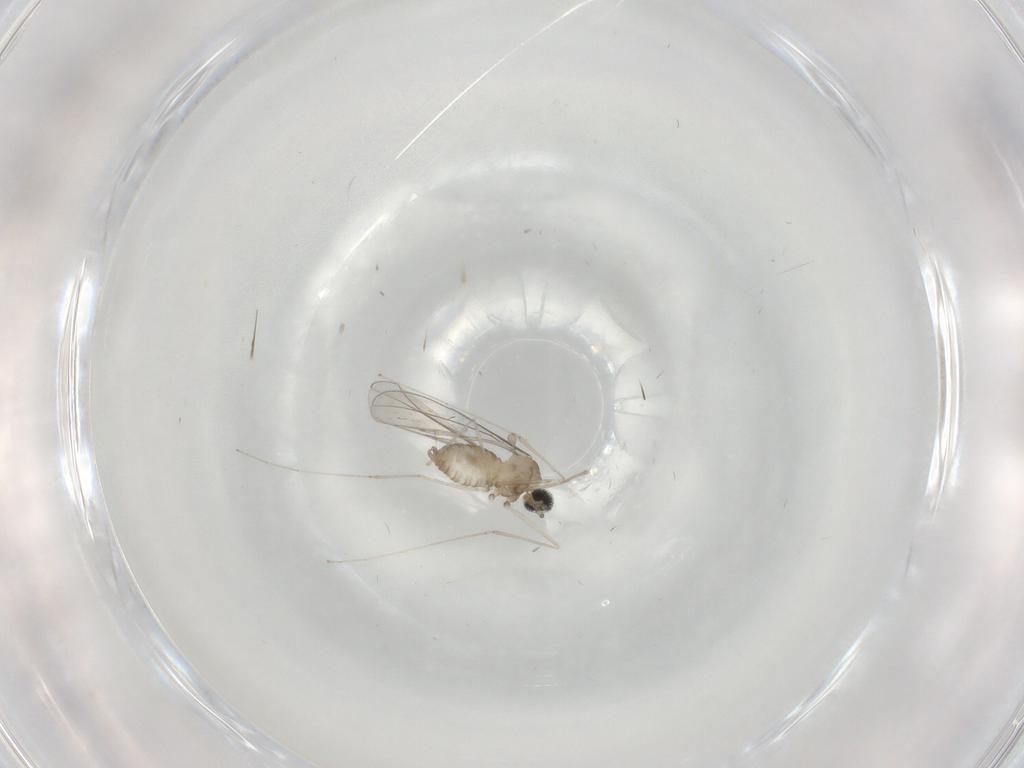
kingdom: Animalia
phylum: Arthropoda
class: Insecta
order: Diptera
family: Cecidomyiidae
